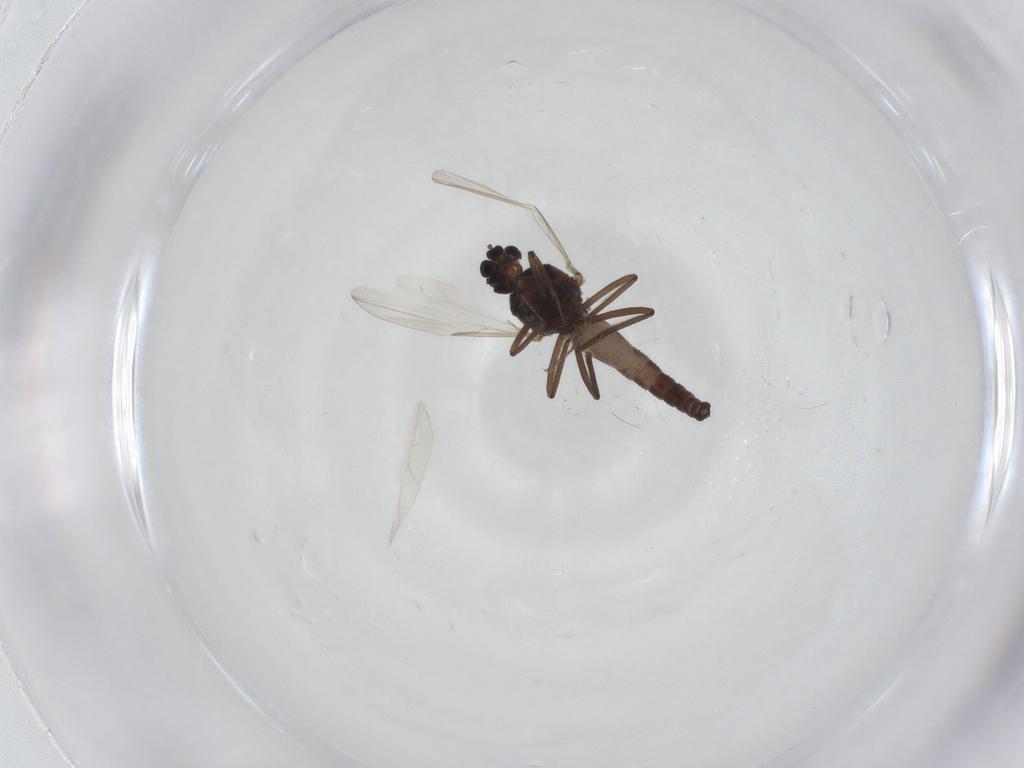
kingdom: Animalia
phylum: Arthropoda
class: Insecta
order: Diptera
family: Ceratopogonidae
